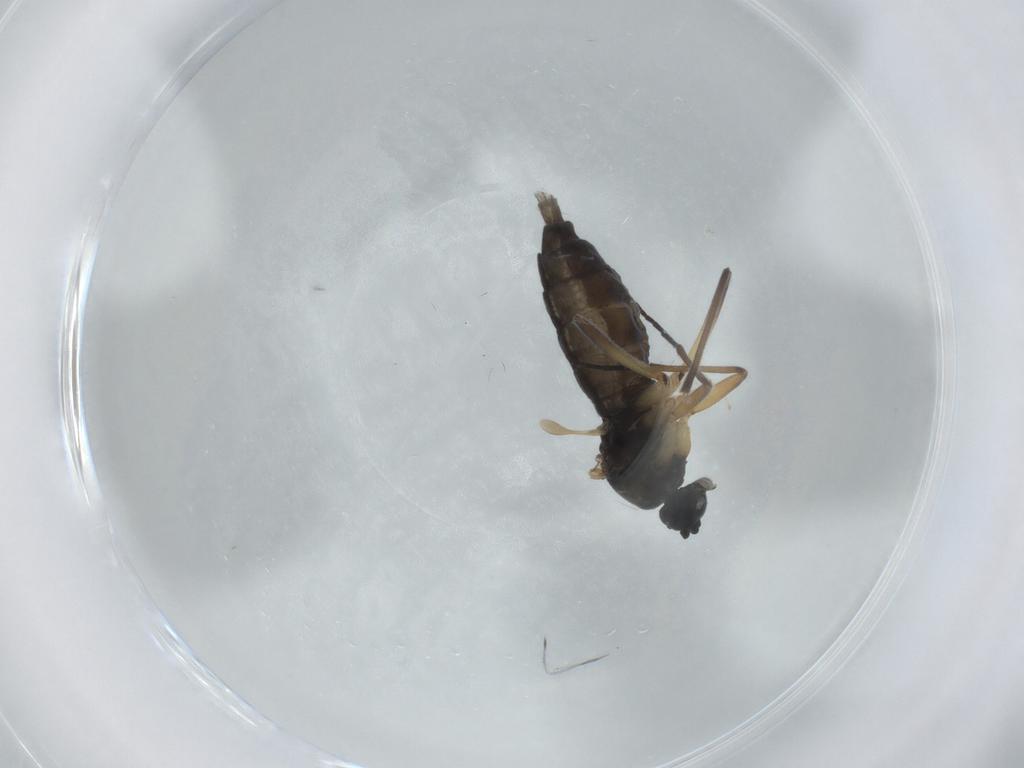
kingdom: Animalia
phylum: Arthropoda
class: Insecta
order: Diptera
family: Sciaridae
